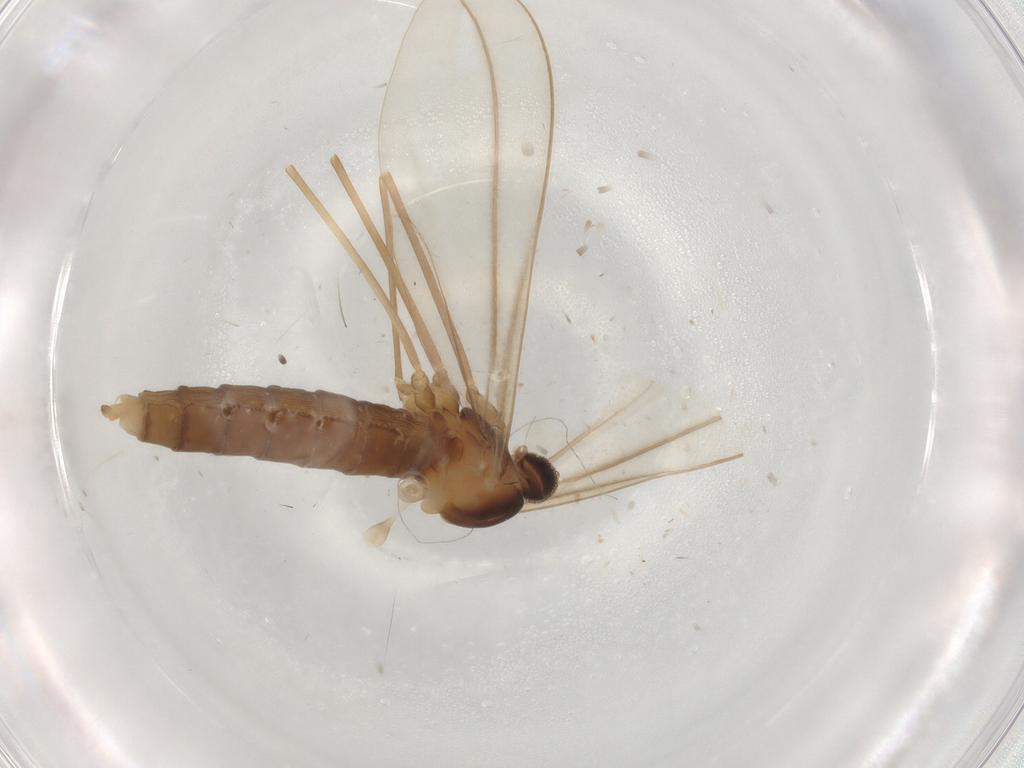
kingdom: Animalia
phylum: Arthropoda
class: Insecta
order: Diptera
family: Cecidomyiidae
